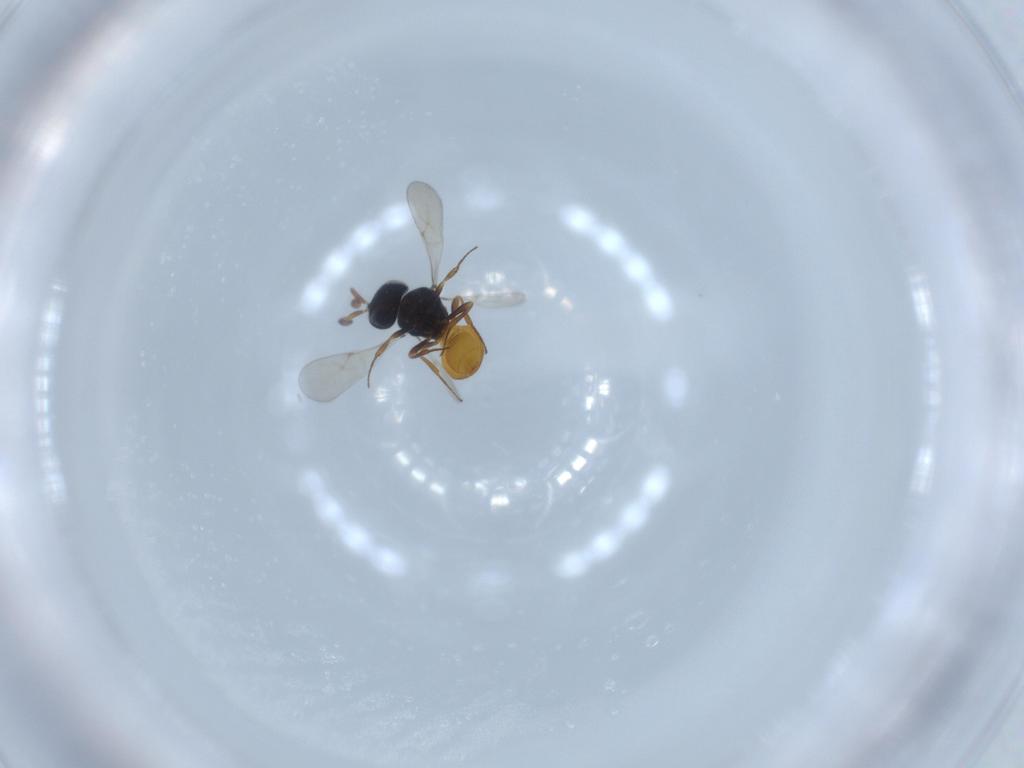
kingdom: Animalia
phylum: Arthropoda
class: Insecta
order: Hymenoptera
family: Scelionidae
